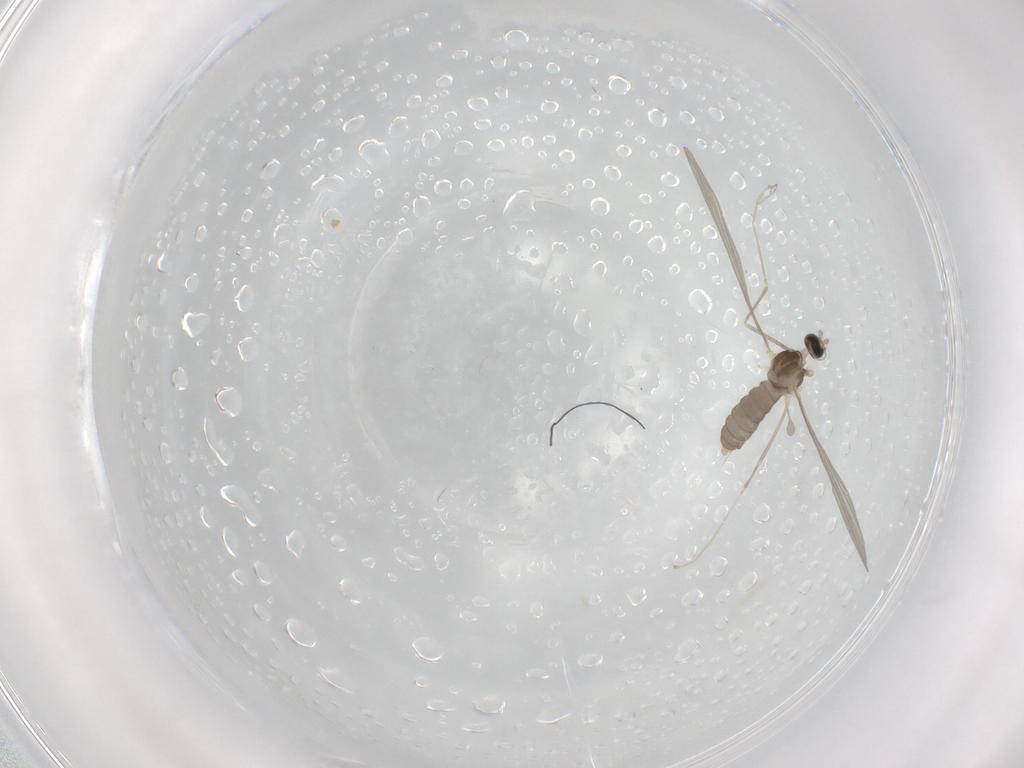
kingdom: Animalia
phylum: Arthropoda
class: Insecta
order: Diptera
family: Cecidomyiidae
